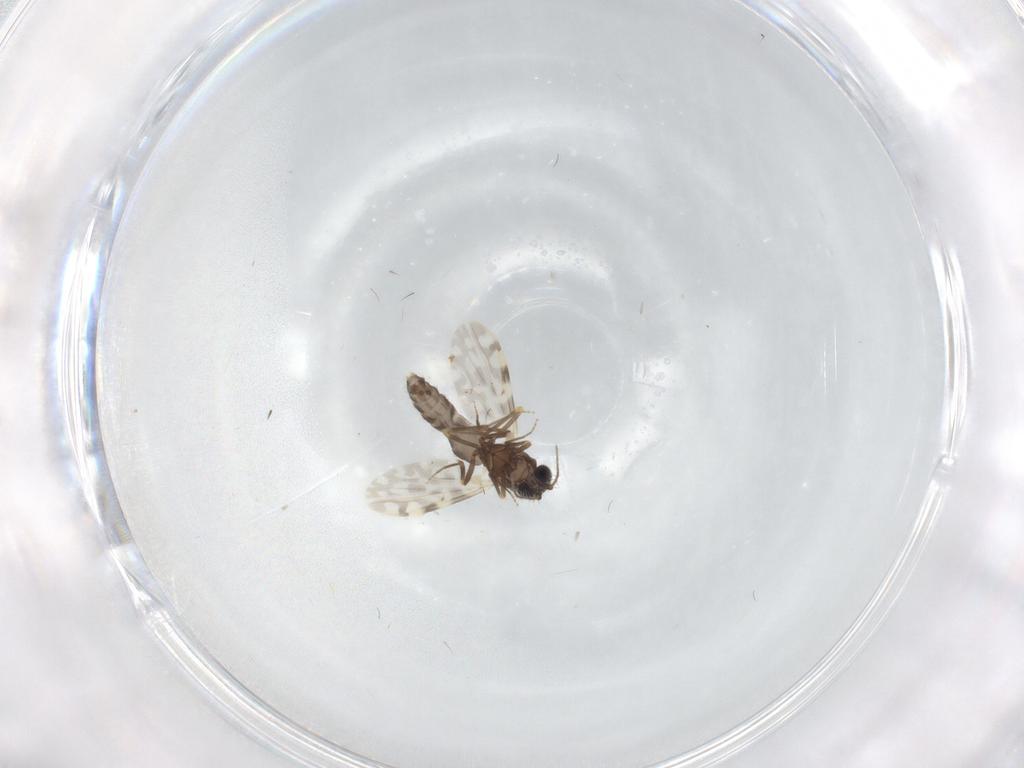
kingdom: Animalia
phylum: Arthropoda
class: Insecta
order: Diptera
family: Ceratopogonidae
